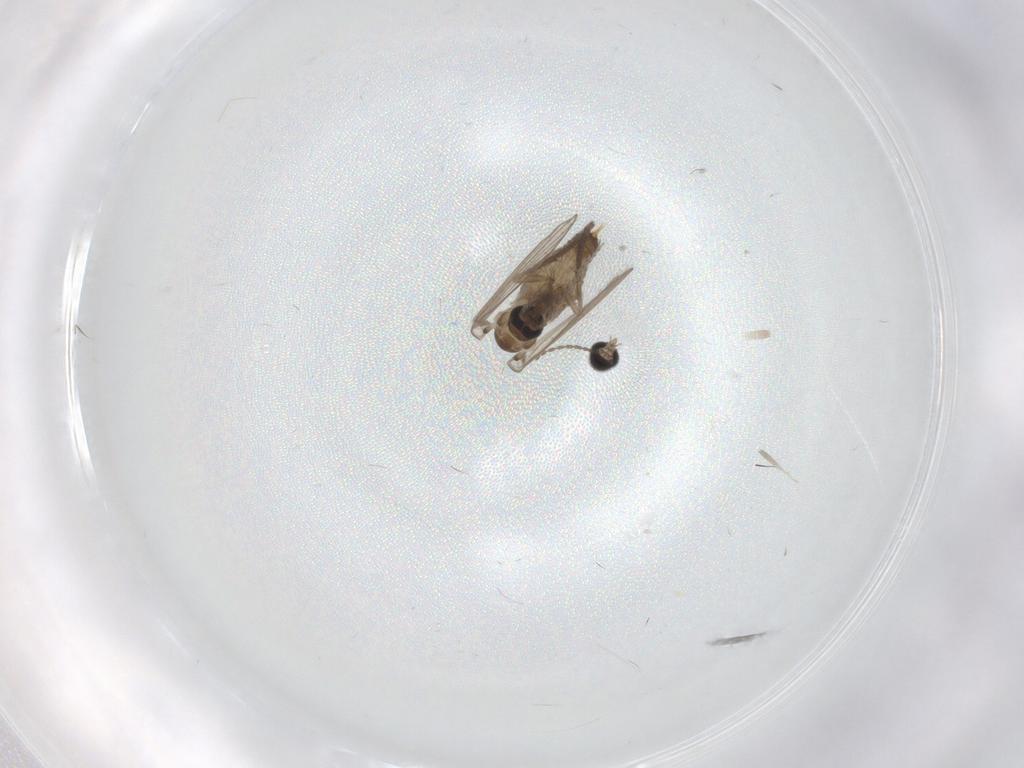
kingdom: Animalia
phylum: Arthropoda
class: Insecta
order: Diptera
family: Psychodidae
